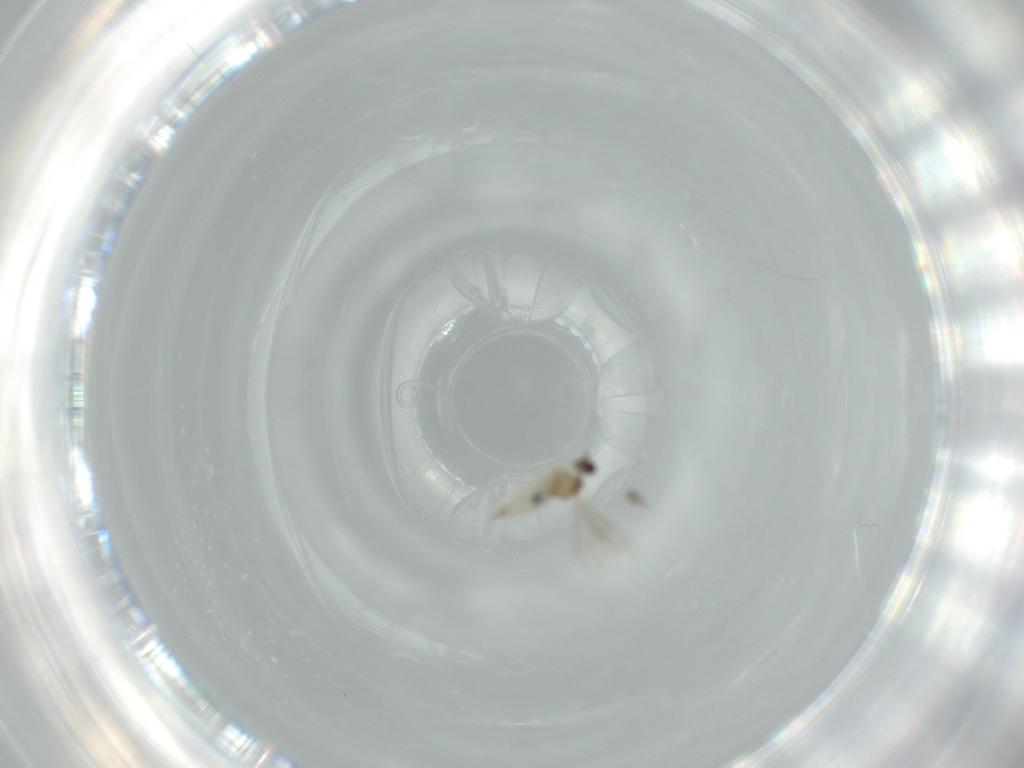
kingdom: Animalia
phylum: Arthropoda
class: Insecta
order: Diptera
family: Cecidomyiidae
